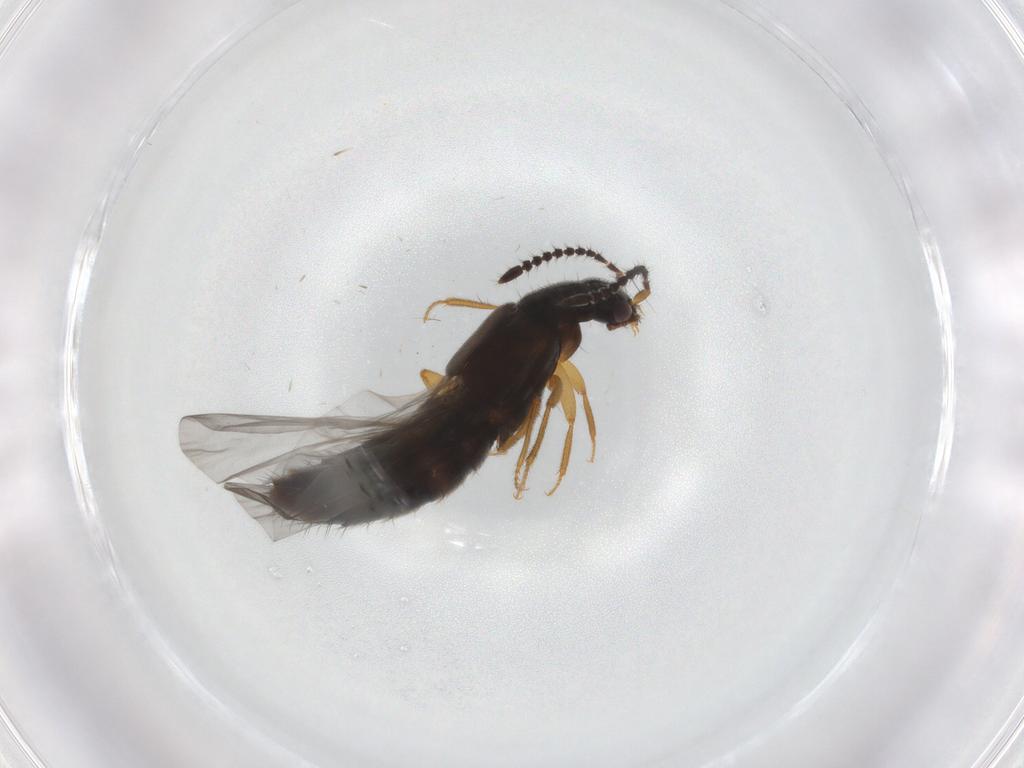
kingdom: Animalia
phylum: Arthropoda
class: Insecta
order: Coleoptera
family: Staphylinidae
